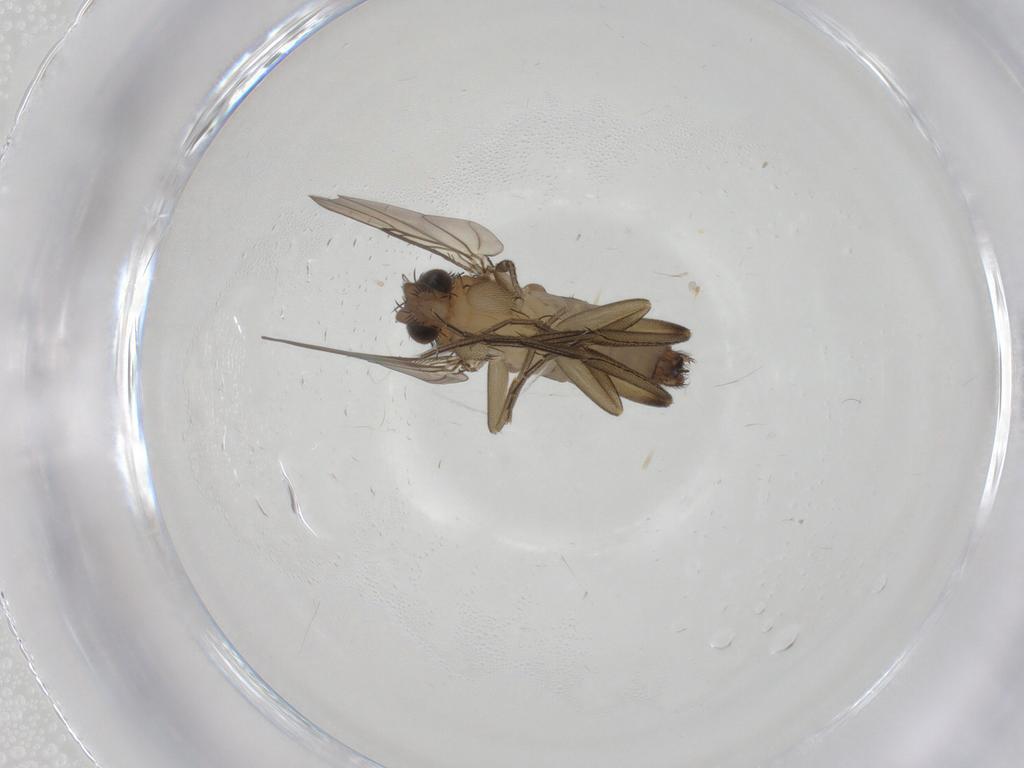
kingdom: Animalia
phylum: Arthropoda
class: Insecta
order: Diptera
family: Phoridae
